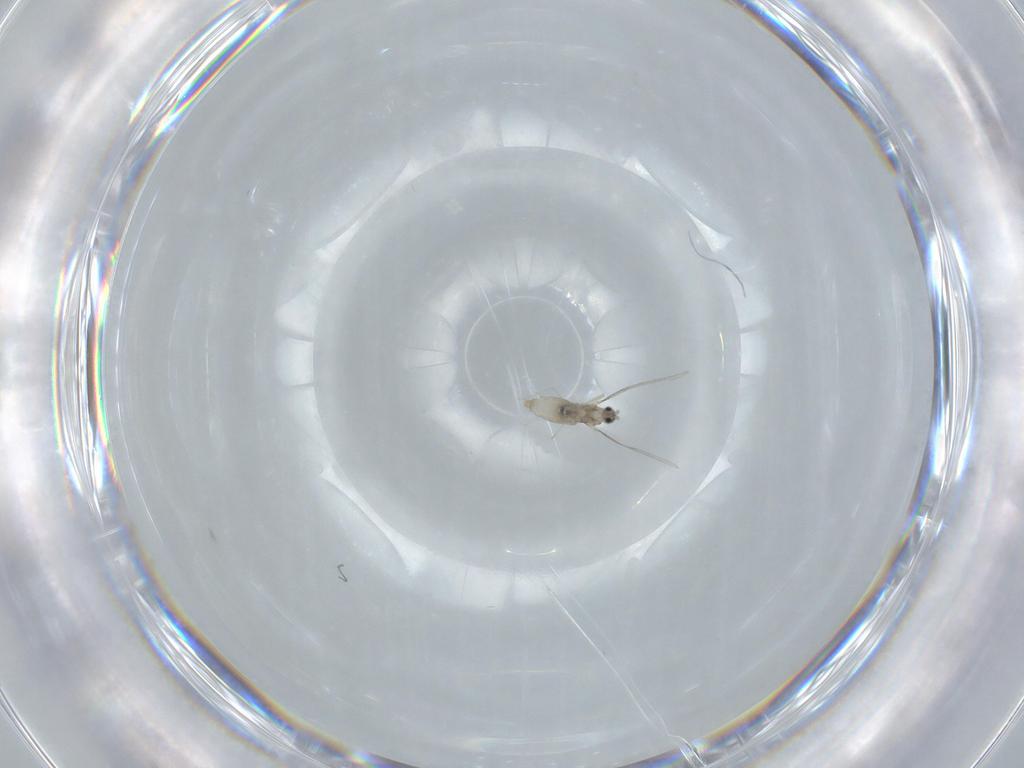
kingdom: Animalia
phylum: Arthropoda
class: Insecta
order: Diptera
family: Cecidomyiidae
